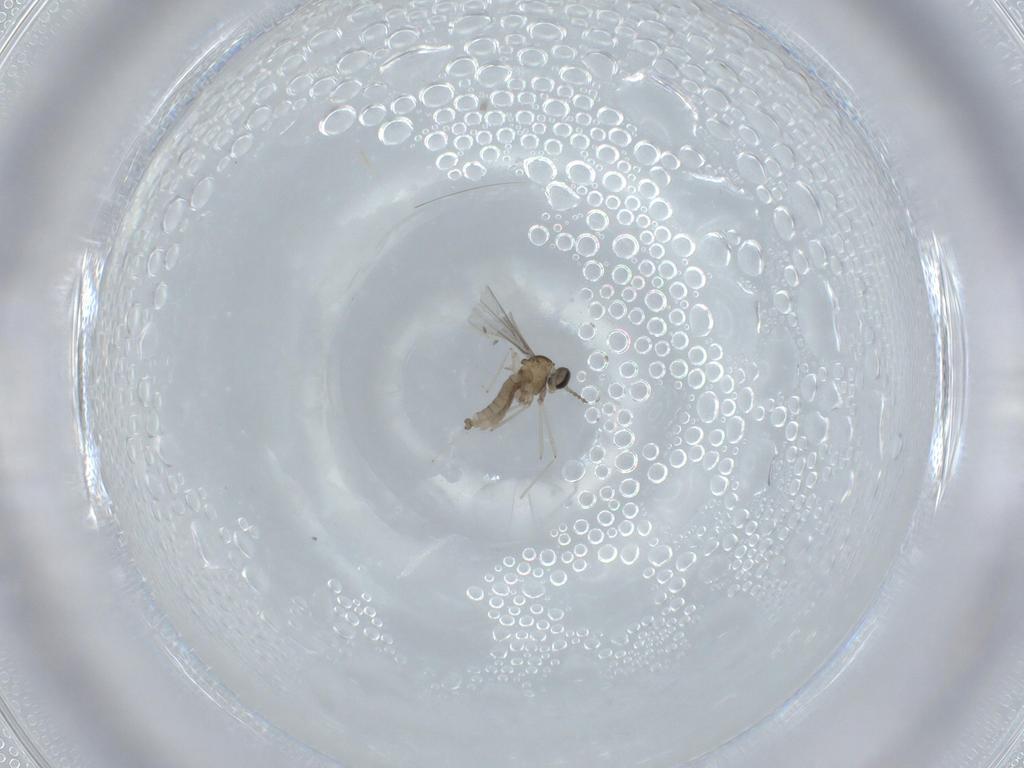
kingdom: Animalia
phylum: Arthropoda
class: Insecta
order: Diptera
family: Cecidomyiidae
